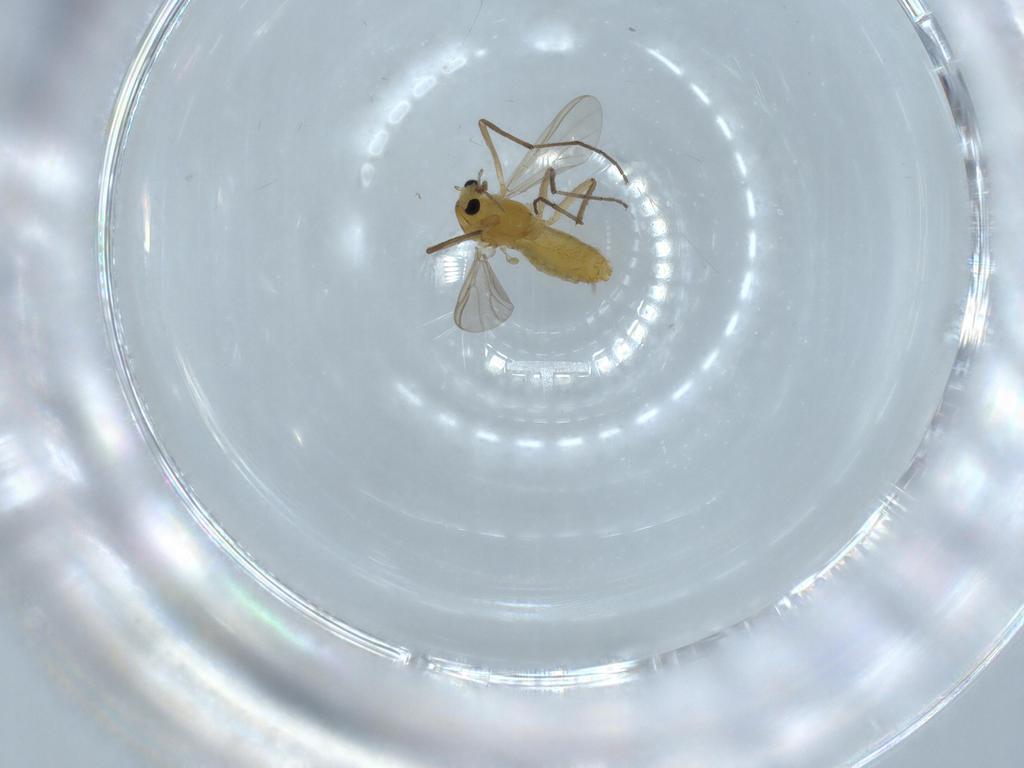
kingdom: Animalia
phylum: Arthropoda
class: Insecta
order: Diptera
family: Chironomidae
